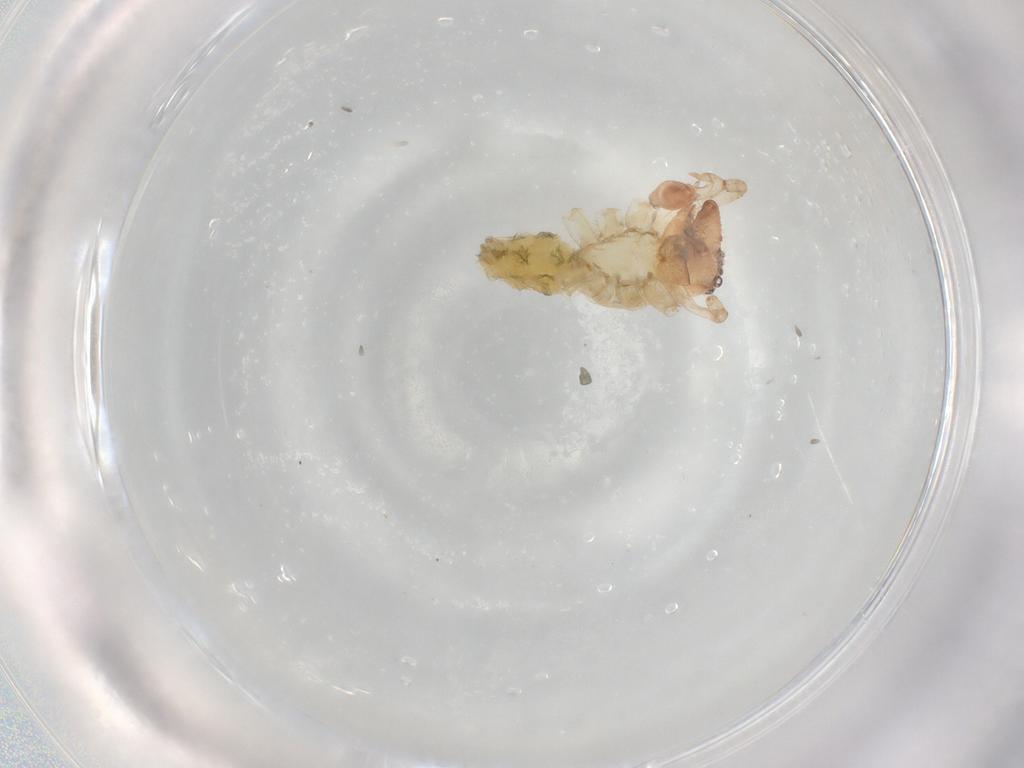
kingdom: Animalia
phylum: Arthropoda
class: Arachnida
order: Araneae
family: Anyphaenidae
